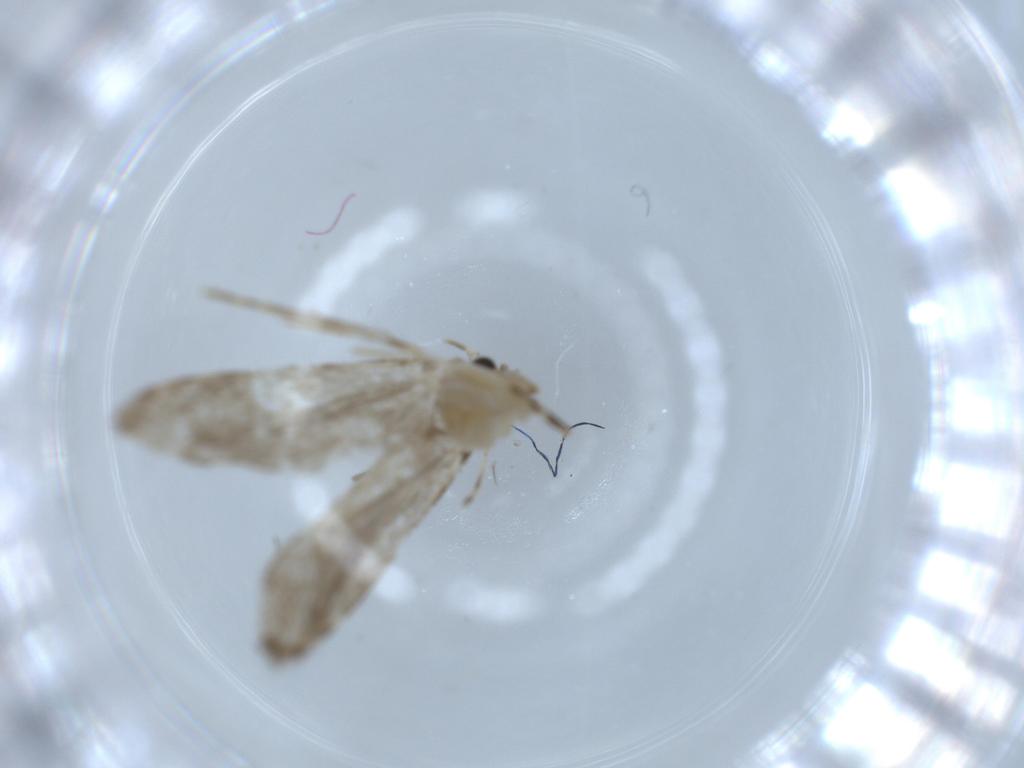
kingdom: Animalia
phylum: Arthropoda
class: Insecta
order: Lepidoptera
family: Tineidae
